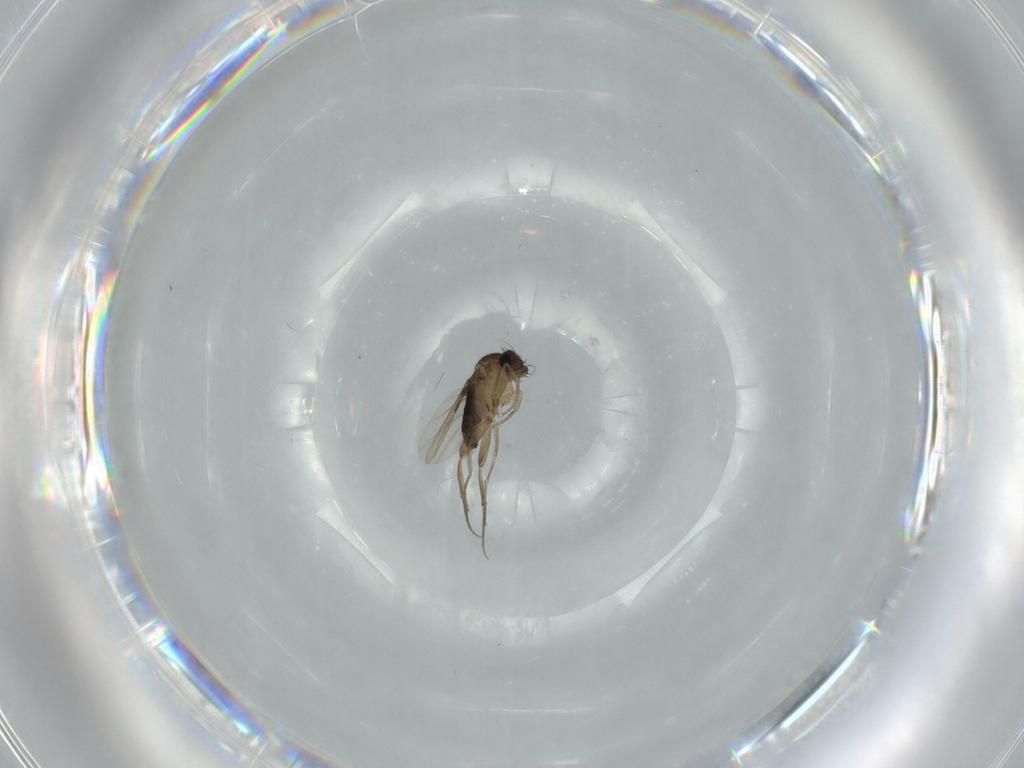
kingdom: Animalia
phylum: Arthropoda
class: Insecta
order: Diptera
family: Phoridae
